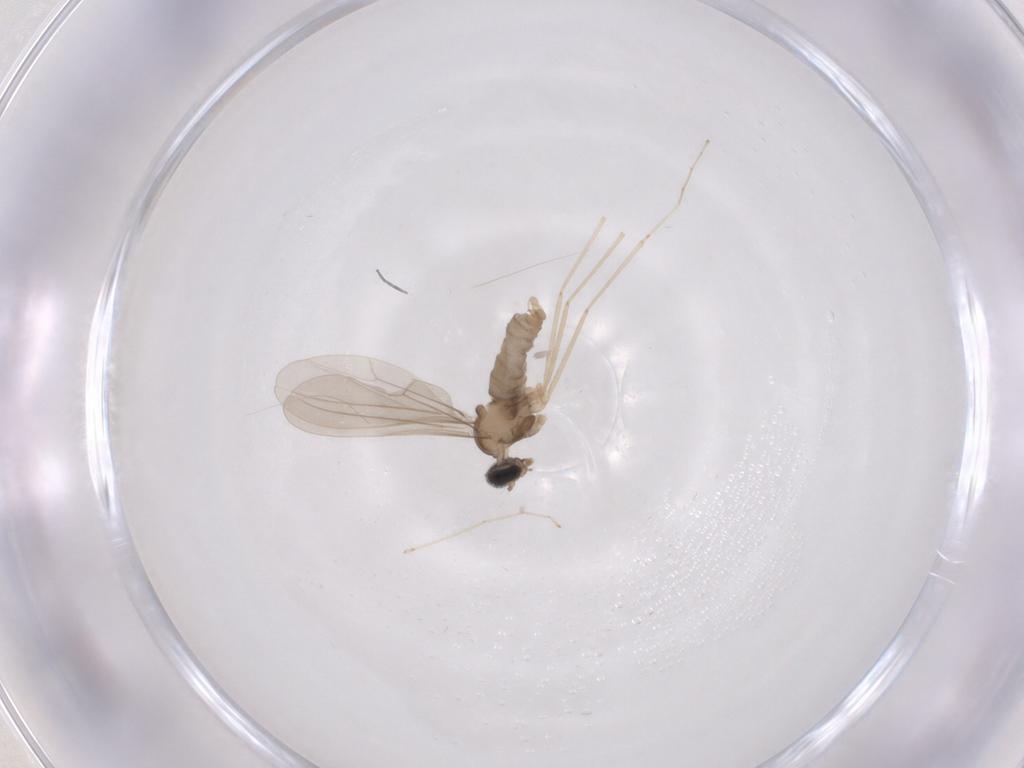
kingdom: Animalia
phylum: Arthropoda
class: Insecta
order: Diptera
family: Cecidomyiidae
